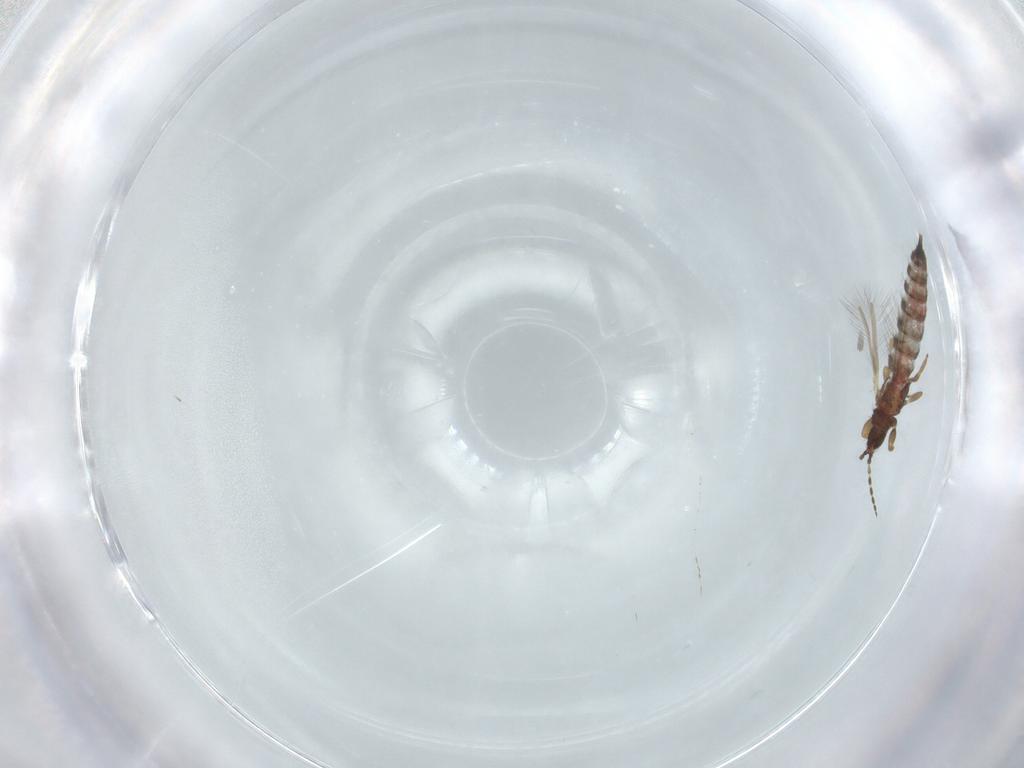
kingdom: Animalia
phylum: Arthropoda
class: Insecta
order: Thysanoptera
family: Phlaeothripidae
